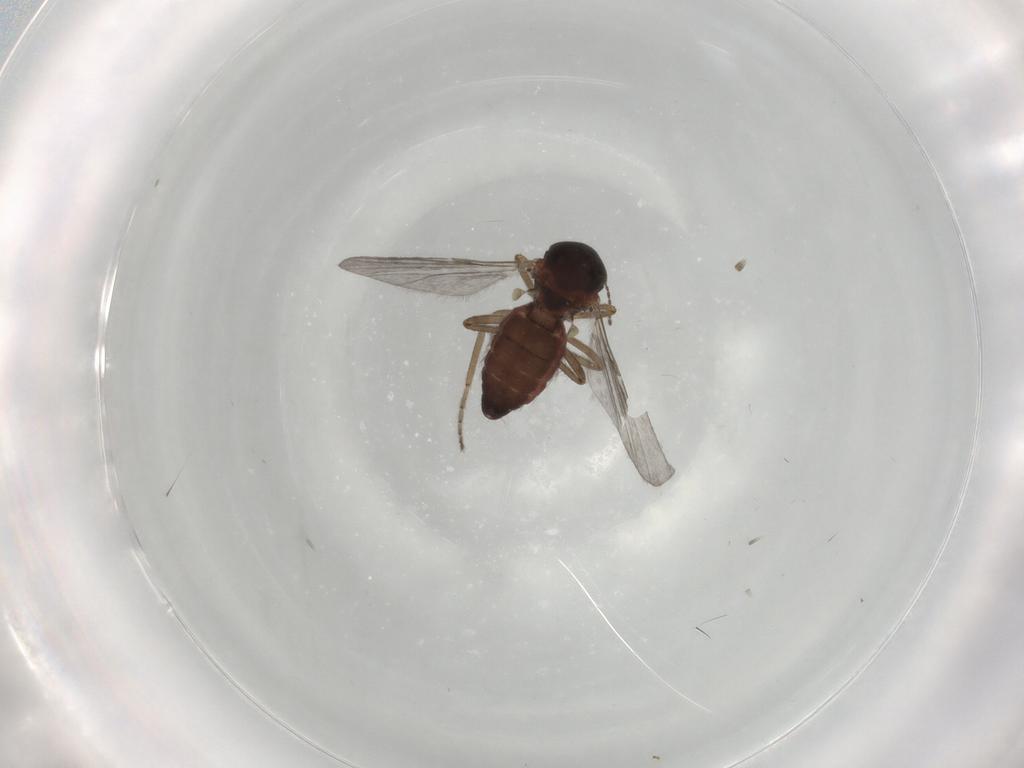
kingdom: Animalia
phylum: Arthropoda
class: Insecta
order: Diptera
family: Ceratopogonidae
